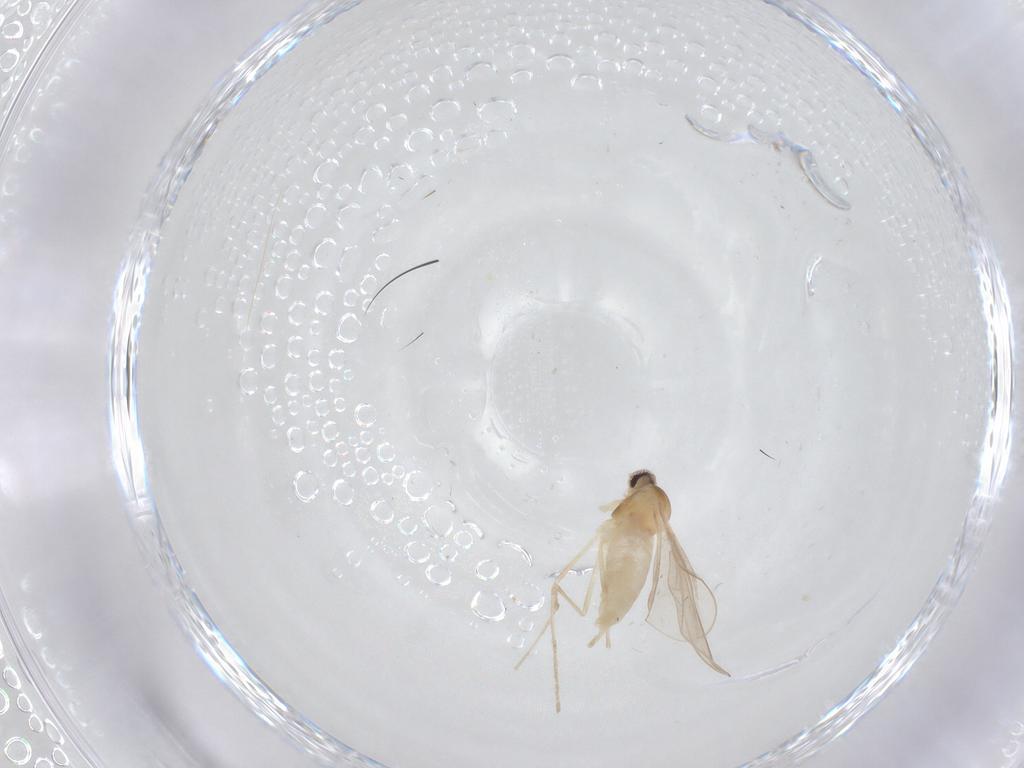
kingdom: Animalia
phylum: Arthropoda
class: Insecta
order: Diptera
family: Cecidomyiidae
